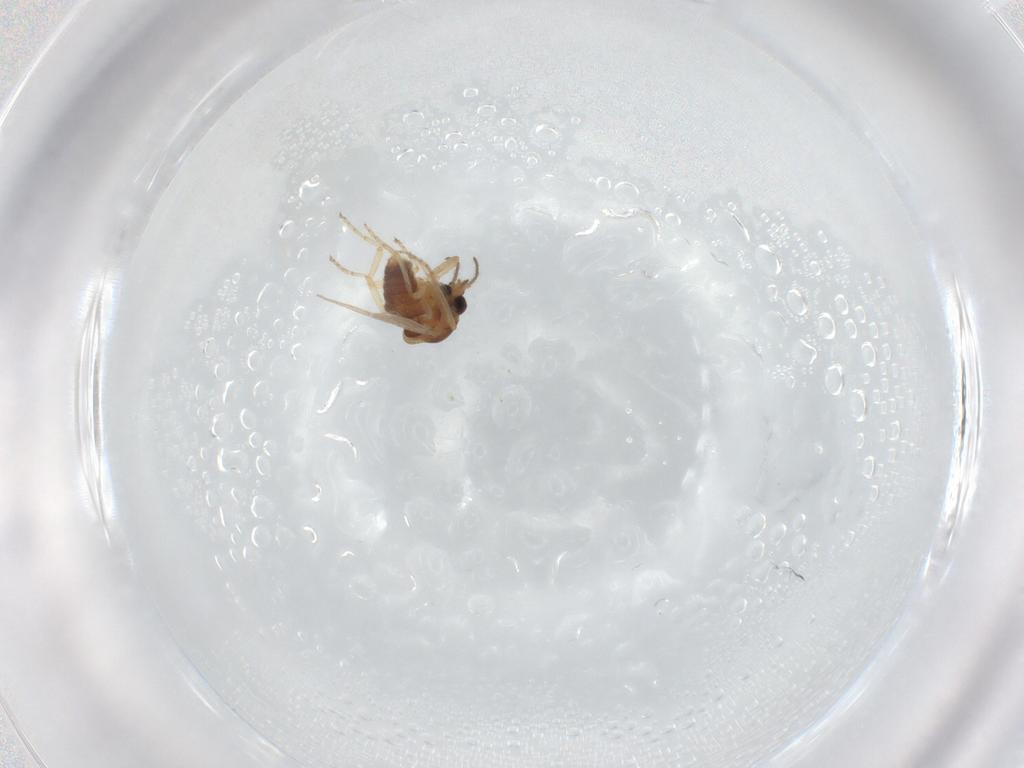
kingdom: Animalia
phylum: Arthropoda
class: Insecta
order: Diptera
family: Ceratopogonidae
